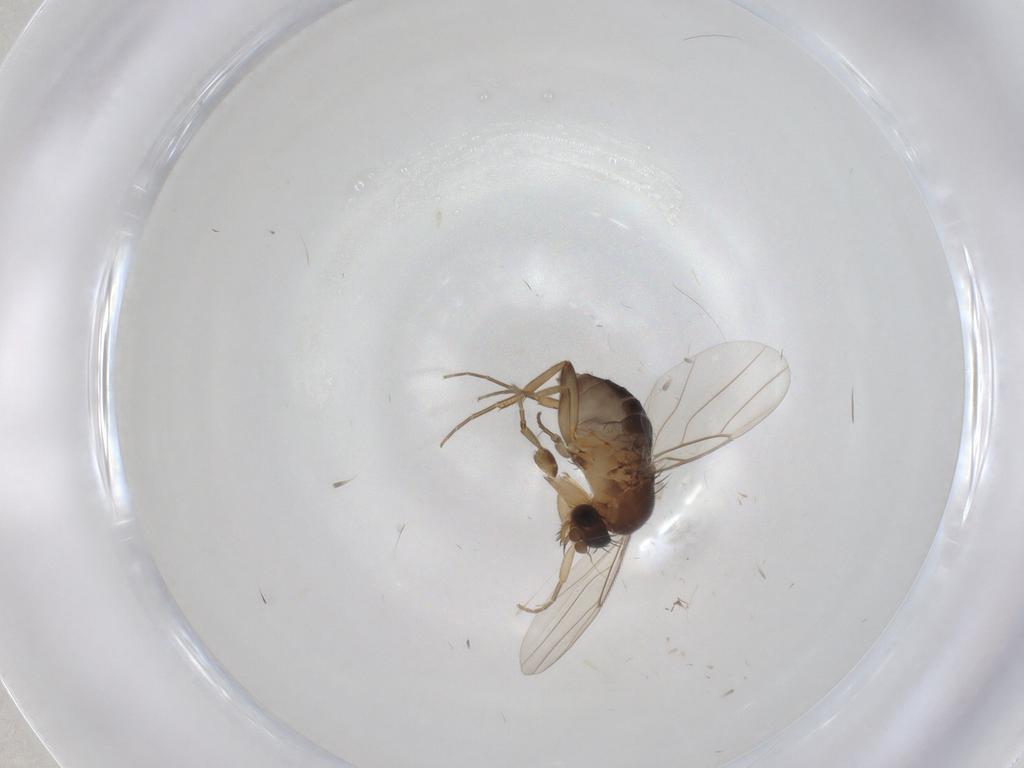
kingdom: Animalia
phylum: Arthropoda
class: Insecta
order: Diptera
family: Phoridae
